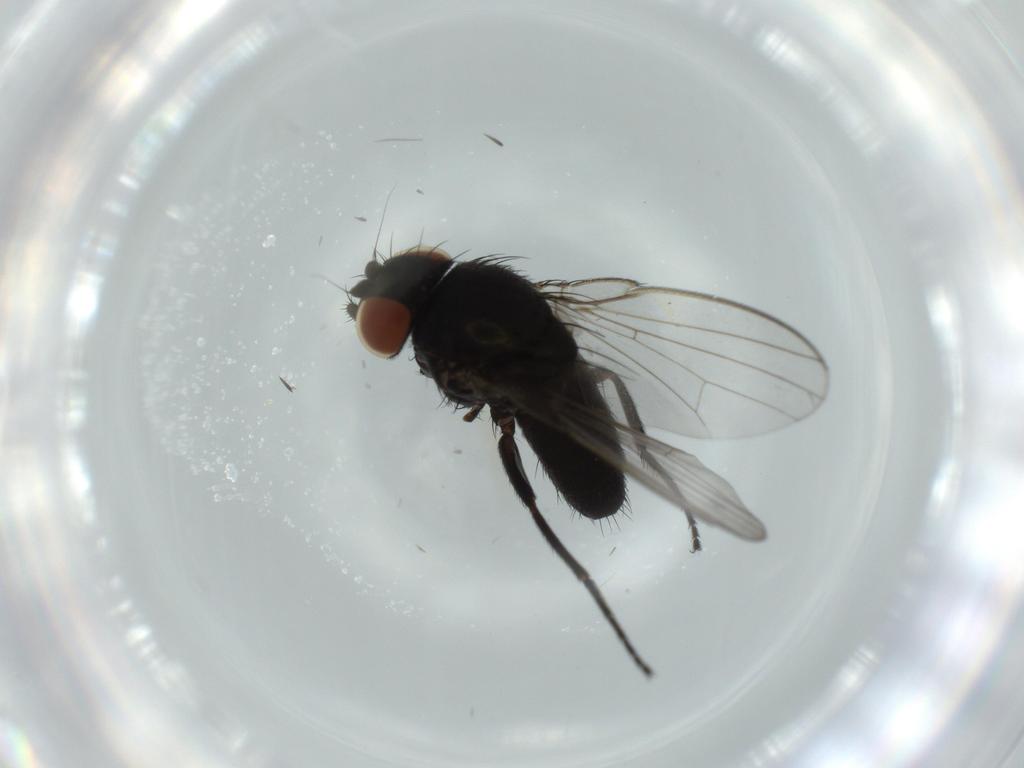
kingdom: Animalia
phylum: Arthropoda
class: Insecta
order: Diptera
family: Milichiidae
